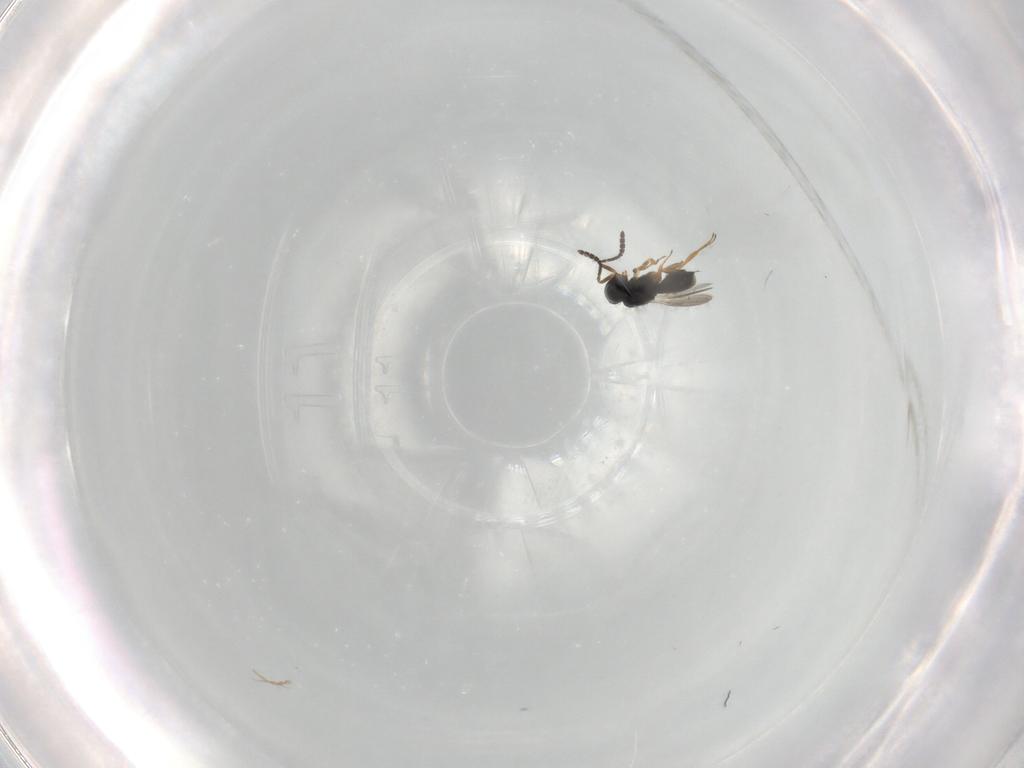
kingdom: Animalia
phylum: Arthropoda
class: Insecta
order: Hymenoptera
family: Scelionidae
